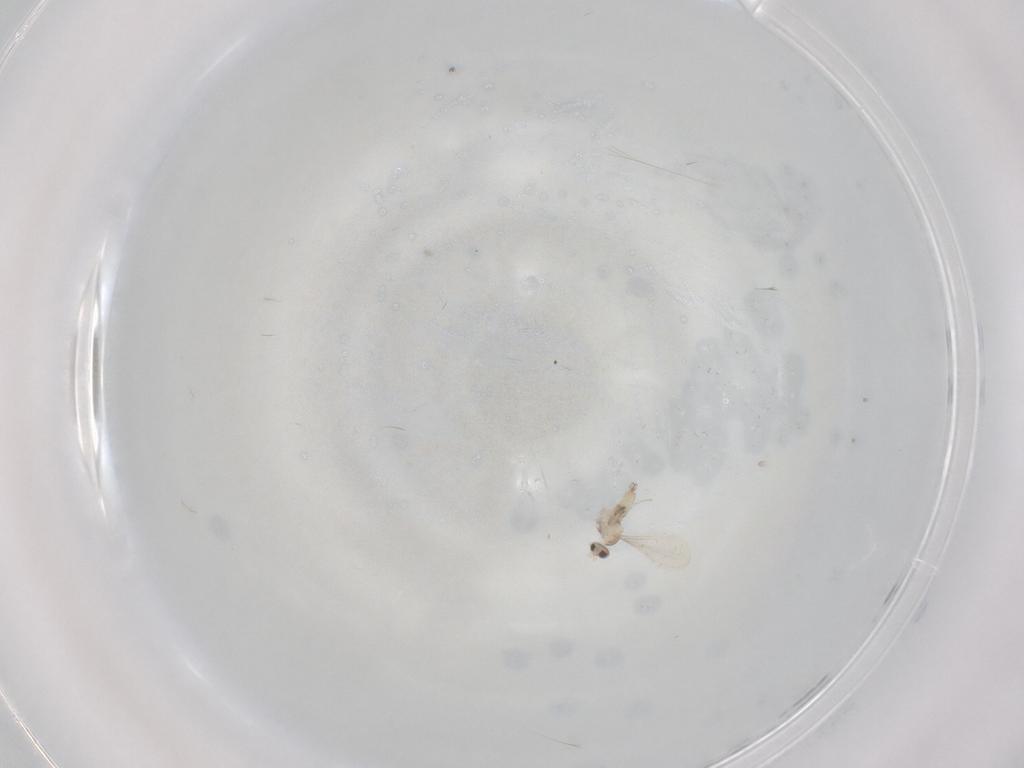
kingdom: Animalia
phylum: Arthropoda
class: Insecta
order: Diptera
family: Cecidomyiidae
